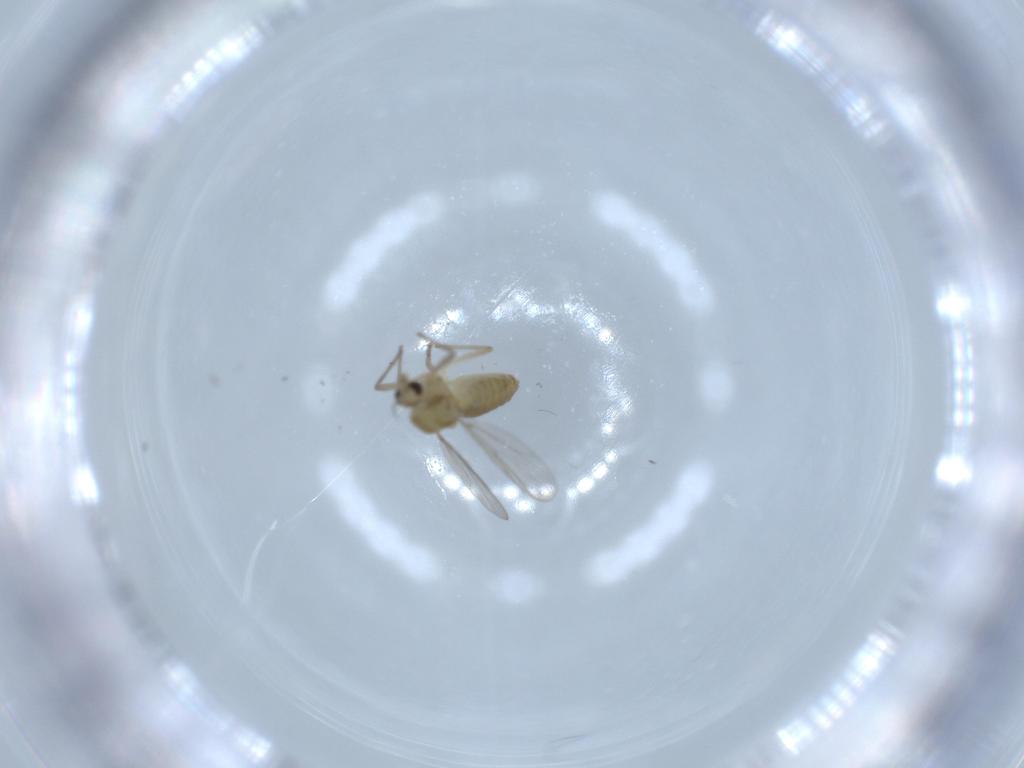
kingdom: Animalia
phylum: Arthropoda
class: Insecta
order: Diptera
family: Chironomidae
